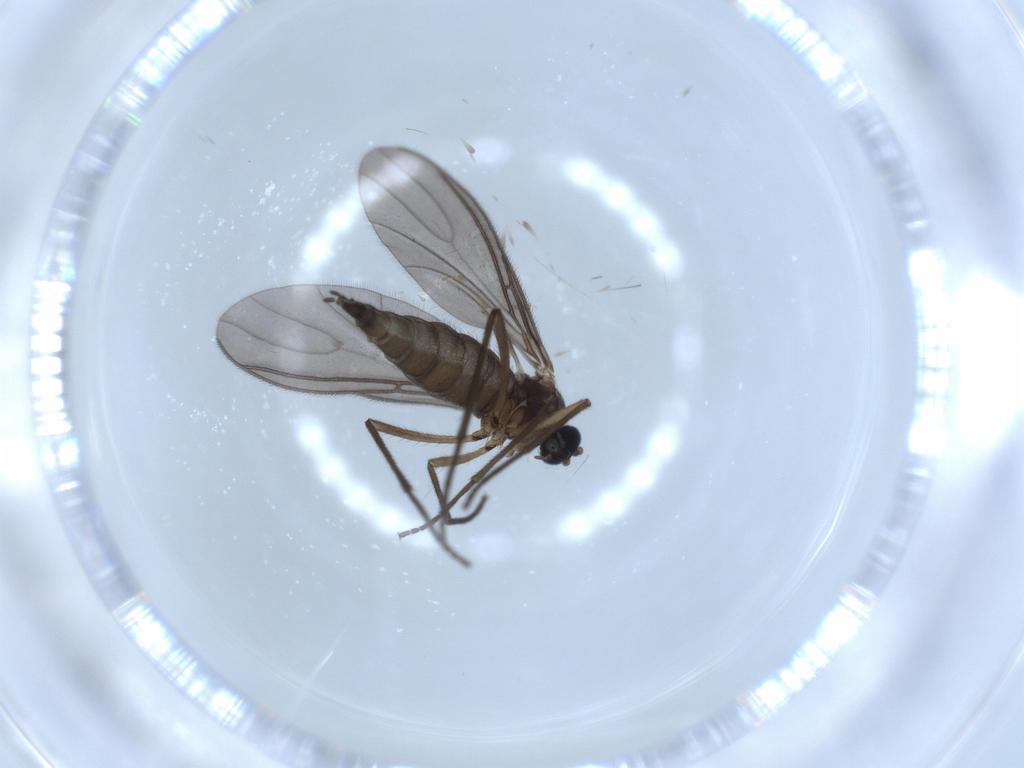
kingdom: Animalia
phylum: Arthropoda
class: Insecta
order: Diptera
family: Sciaridae
